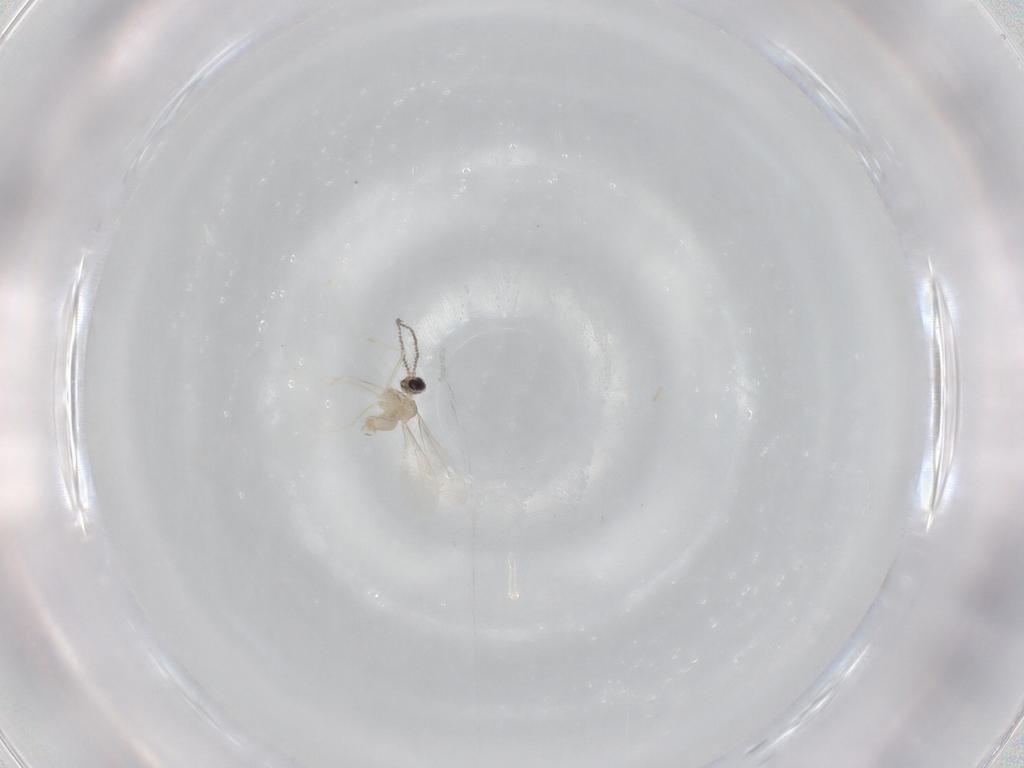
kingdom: Animalia
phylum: Arthropoda
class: Insecta
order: Diptera
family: Cecidomyiidae
